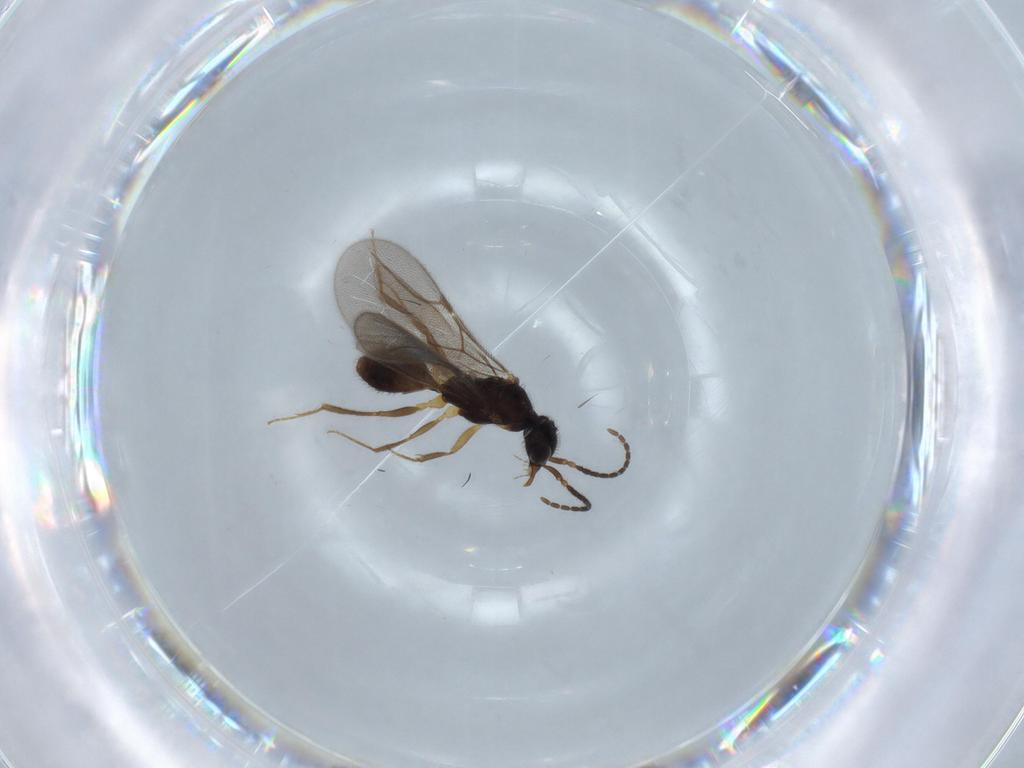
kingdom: Animalia
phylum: Arthropoda
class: Insecta
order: Hymenoptera
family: Bethylidae
